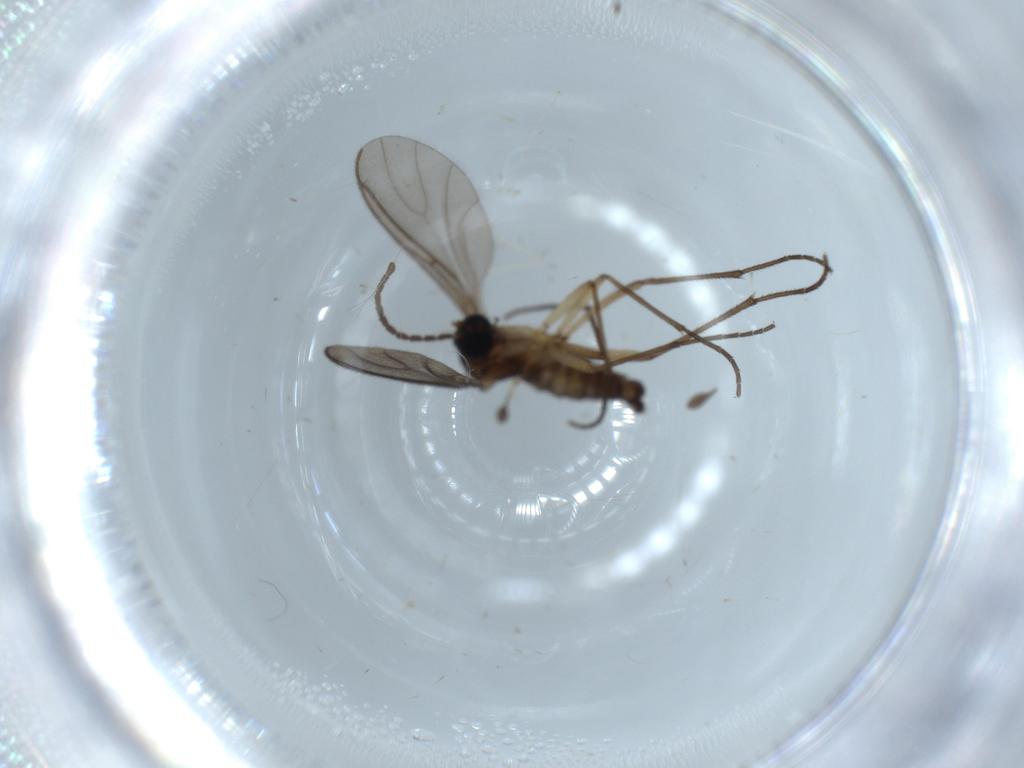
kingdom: Animalia
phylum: Arthropoda
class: Insecta
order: Diptera
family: Sciaridae
